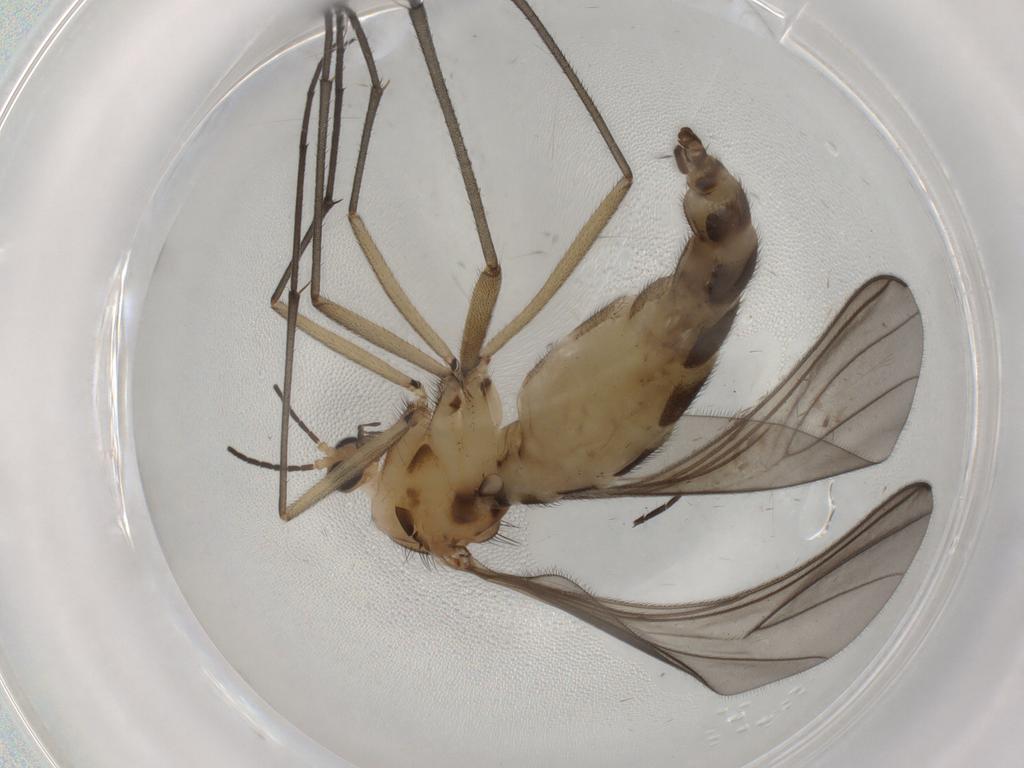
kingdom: Animalia
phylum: Arthropoda
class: Insecta
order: Diptera
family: Sciaridae
